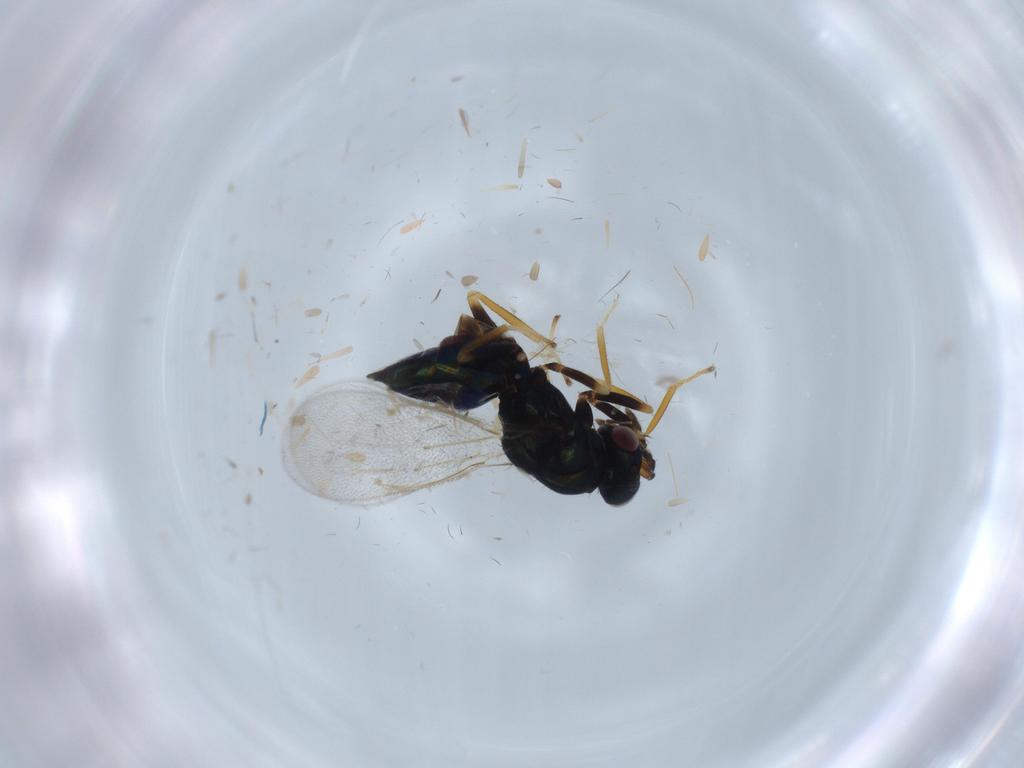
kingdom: Animalia
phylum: Arthropoda
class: Insecta
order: Hymenoptera
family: Eulophidae
